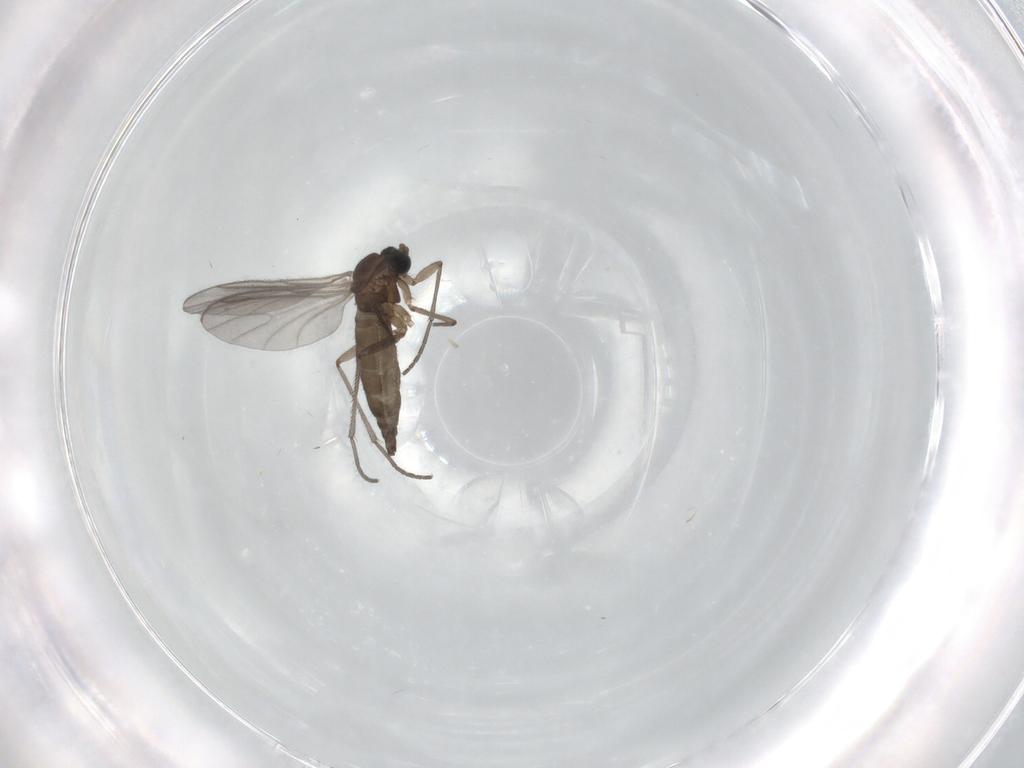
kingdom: Animalia
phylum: Arthropoda
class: Insecta
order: Diptera
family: Sciaridae
